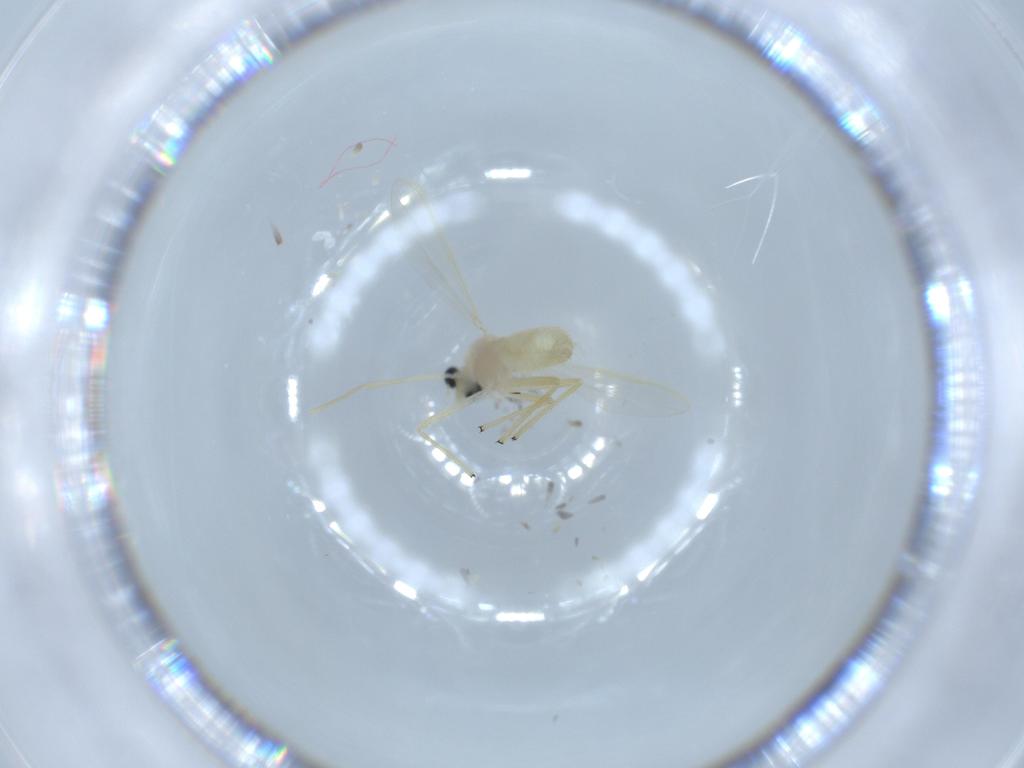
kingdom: Animalia
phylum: Arthropoda
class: Insecta
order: Diptera
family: Chironomidae
